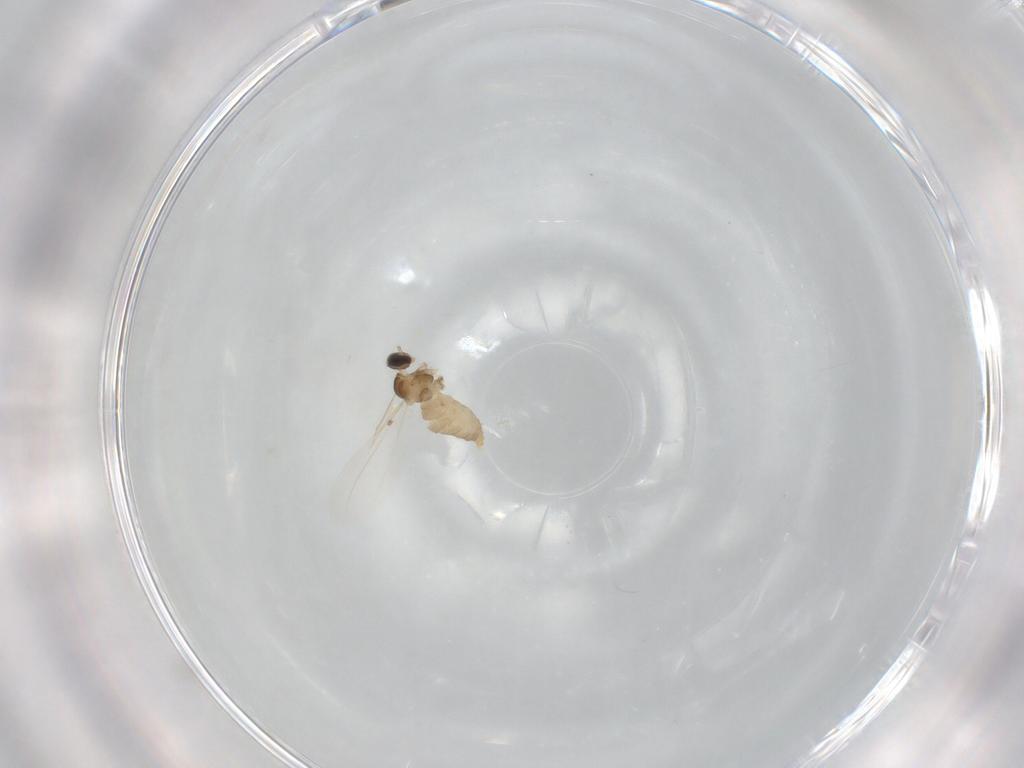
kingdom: Animalia
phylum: Arthropoda
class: Insecta
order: Diptera
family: Cecidomyiidae
